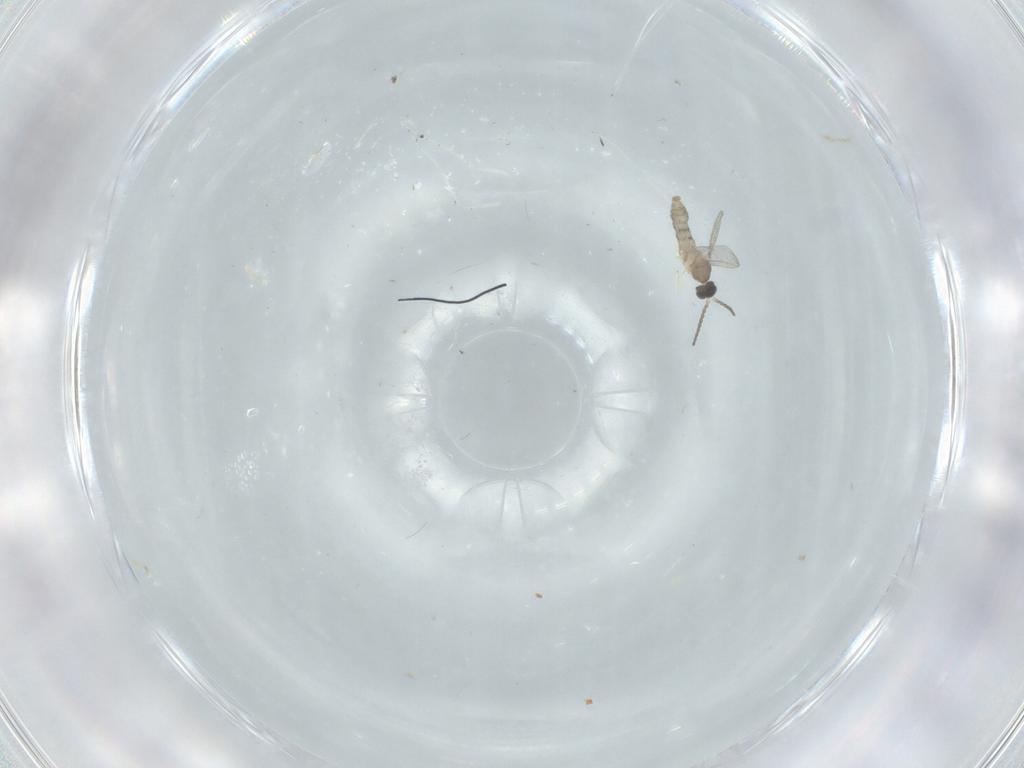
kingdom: Animalia
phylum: Arthropoda
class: Insecta
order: Diptera
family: Cecidomyiidae
